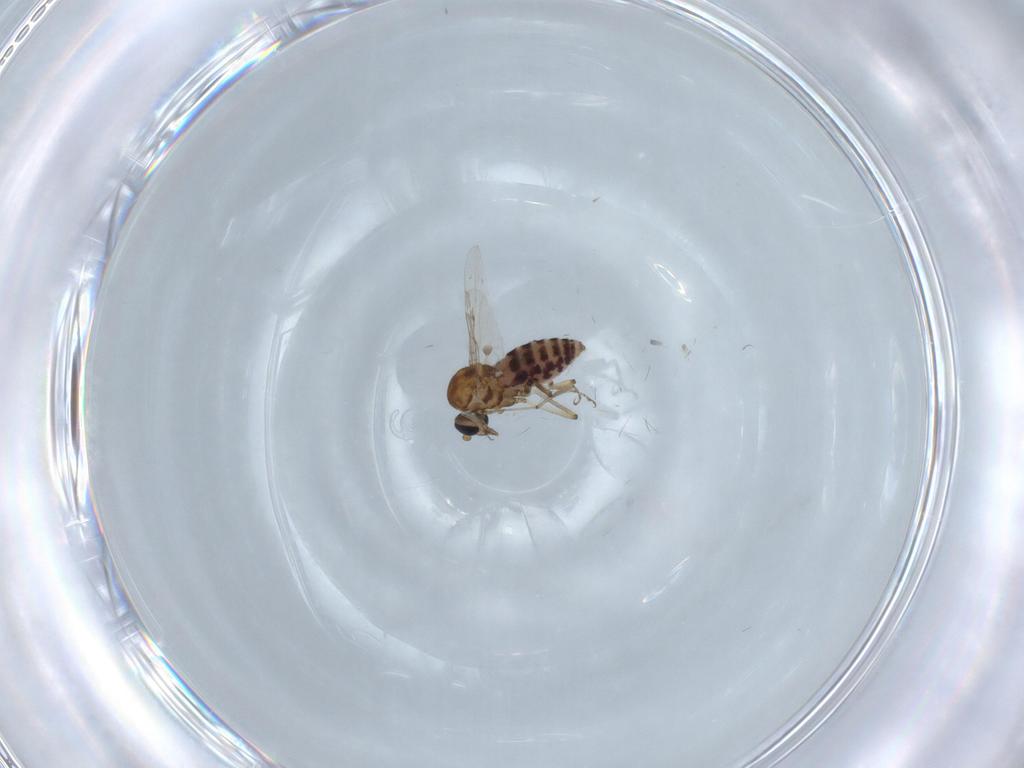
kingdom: Animalia
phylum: Arthropoda
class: Insecta
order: Diptera
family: Ceratopogonidae
